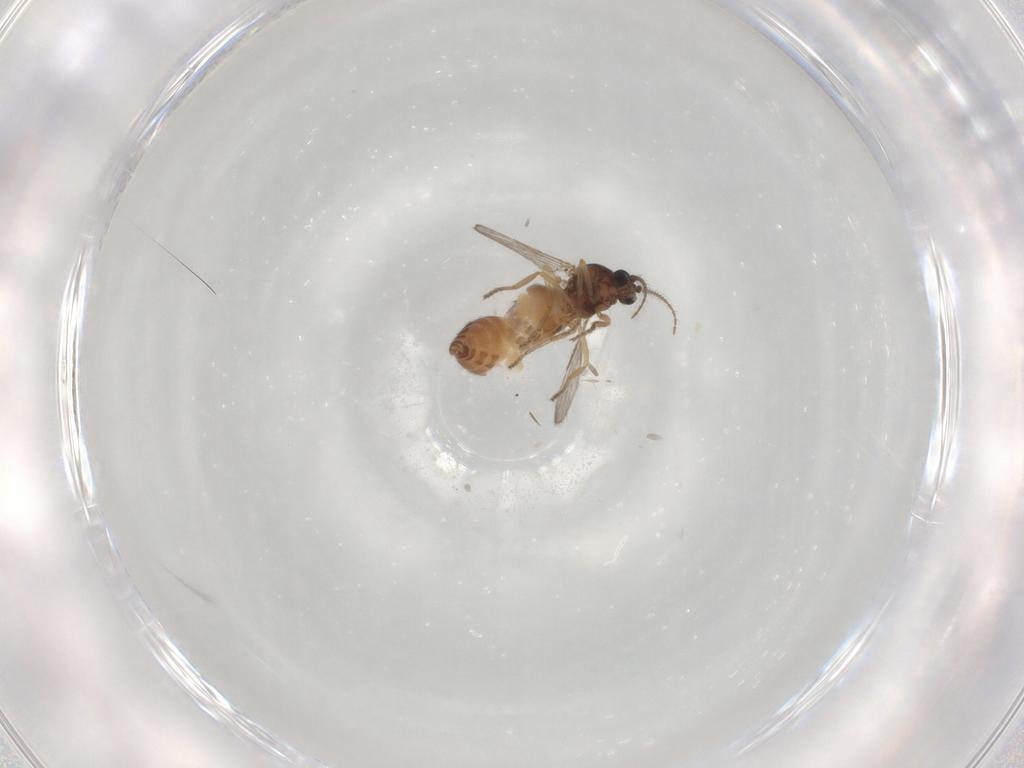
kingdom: Animalia
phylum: Arthropoda
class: Insecta
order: Diptera
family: Ceratopogonidae
